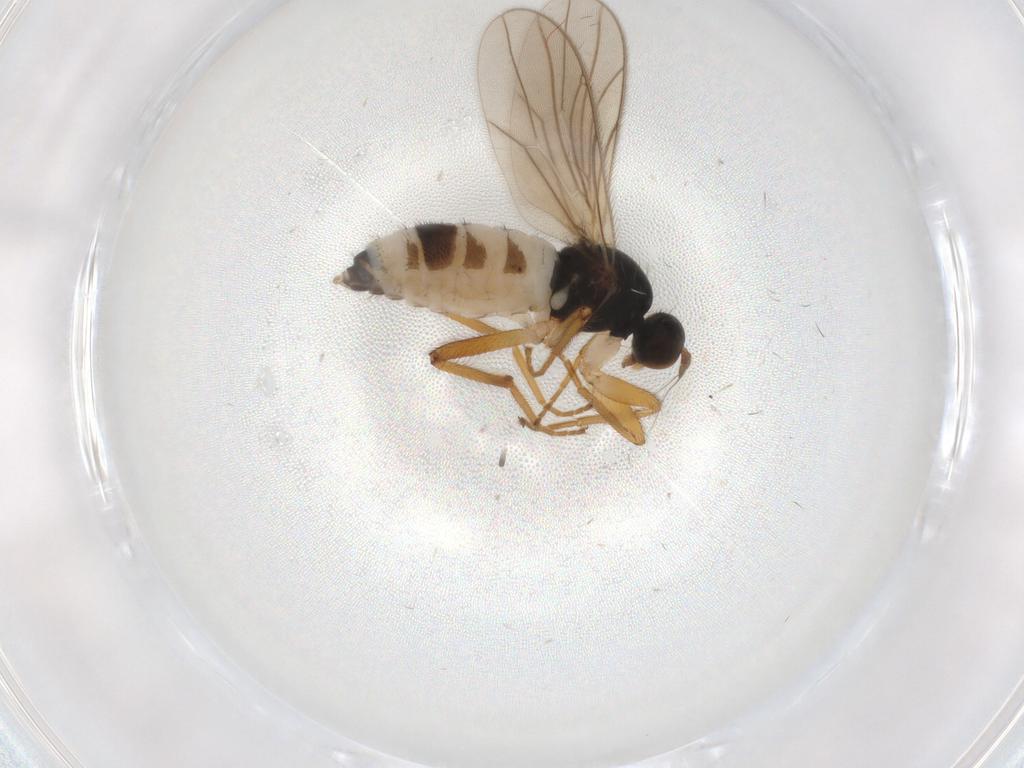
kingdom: Animalia
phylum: Arthropoda
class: Insecta
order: Diptera
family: Hybotidae
